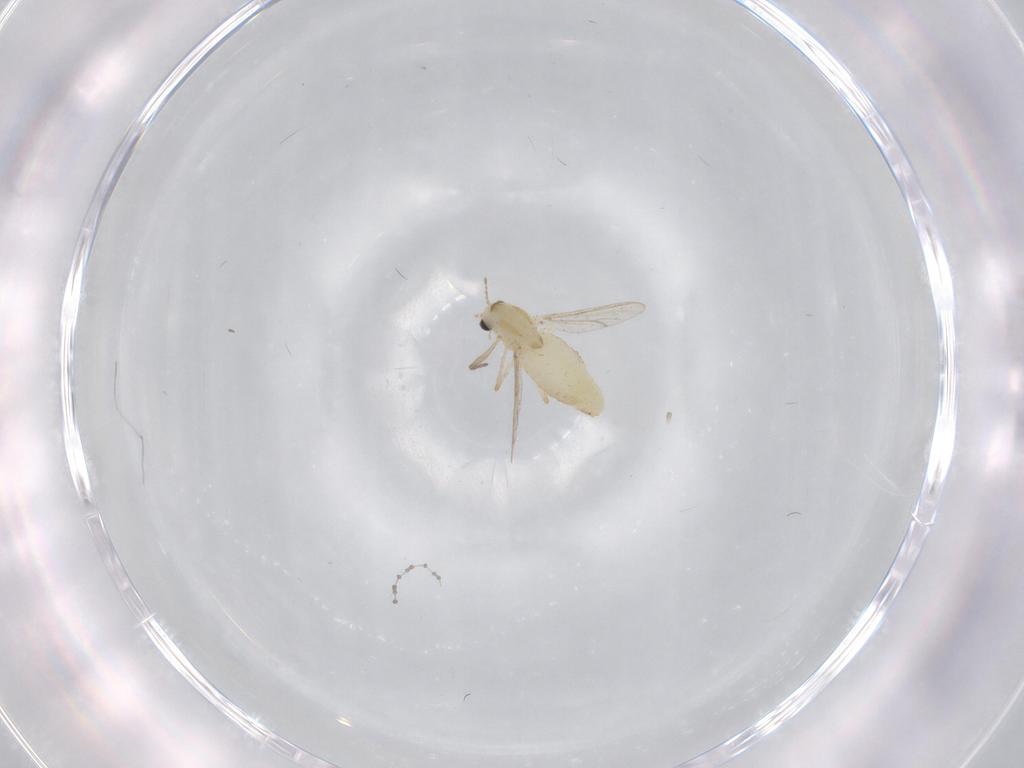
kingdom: Animalia
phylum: Arthropoda
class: Insecta
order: Diptera
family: Chironomidae
